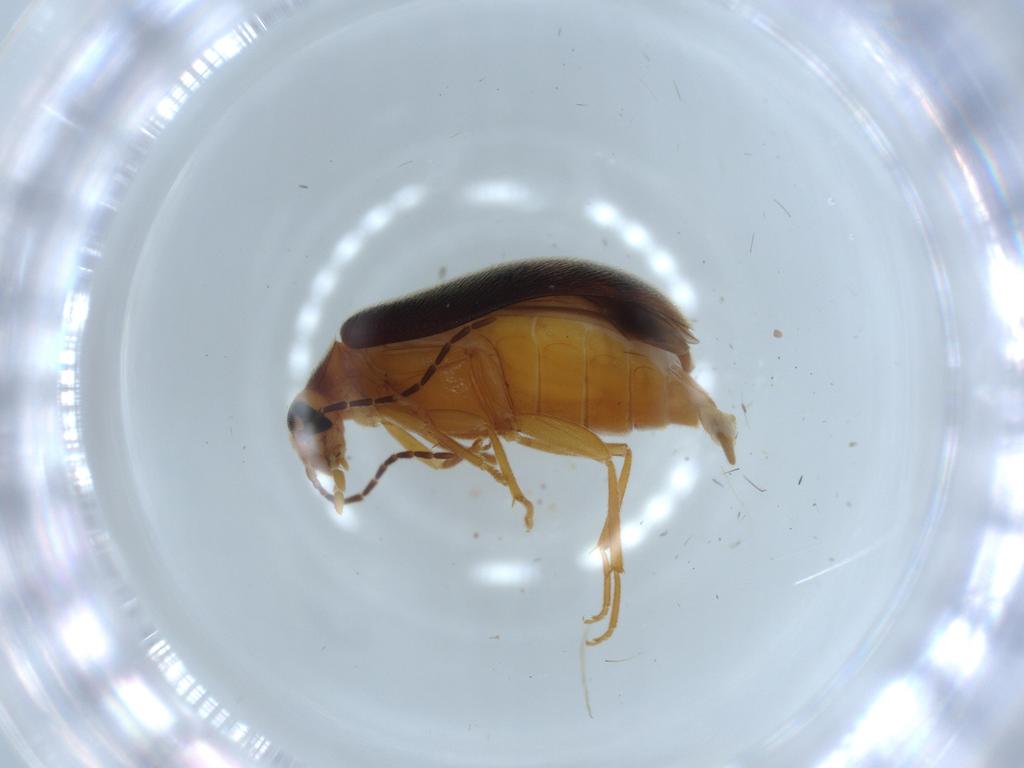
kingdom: Animalia
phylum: Arthropoda
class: Insecta
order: Coleoptera
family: Scraptiidae
